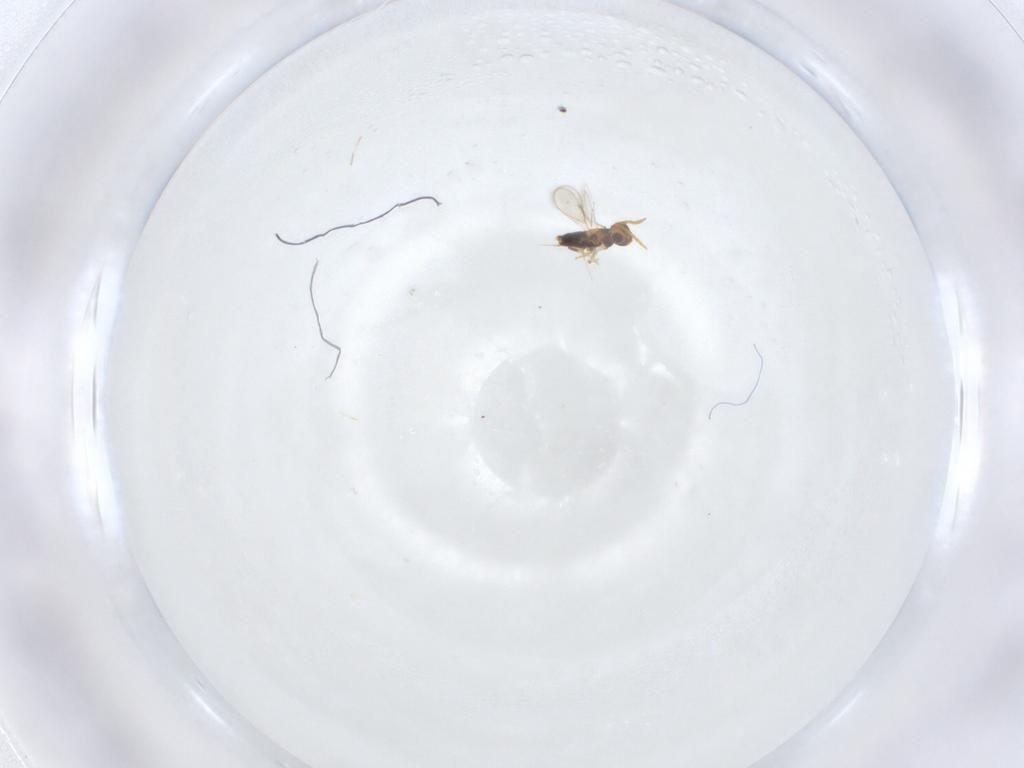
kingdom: Animalia
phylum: Arthropoda
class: Insecta
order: Hymenoptera
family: Aphelinidae
